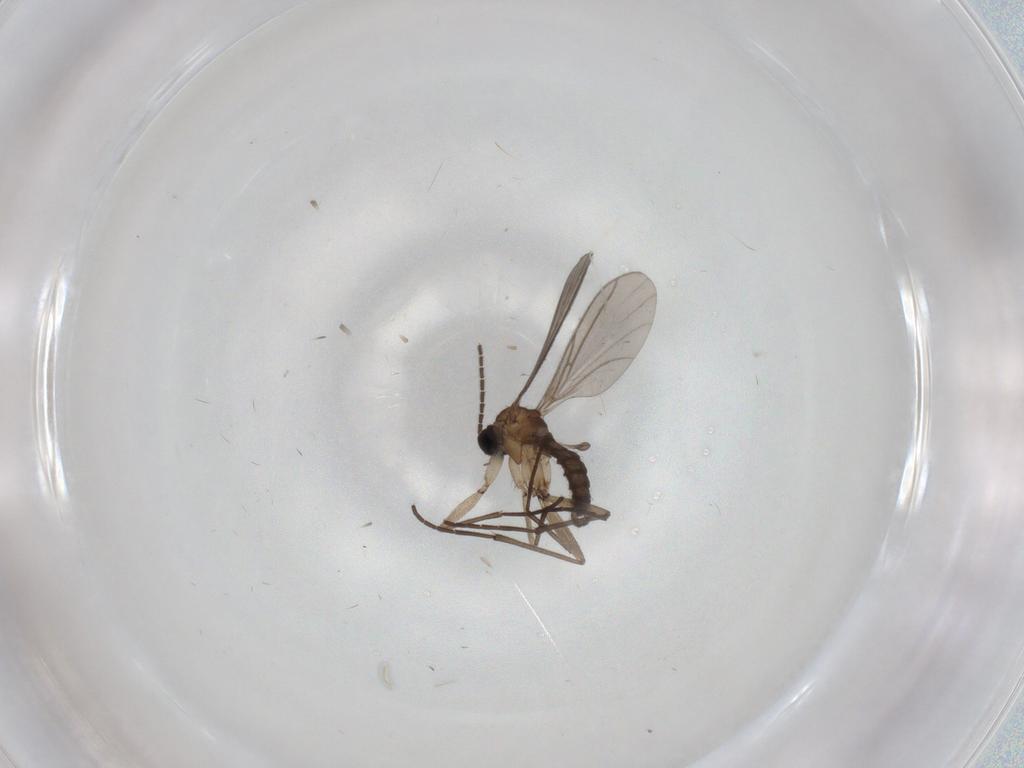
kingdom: Animalia
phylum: Arthropoda
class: Insecta
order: Diptera
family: Sciaridae
